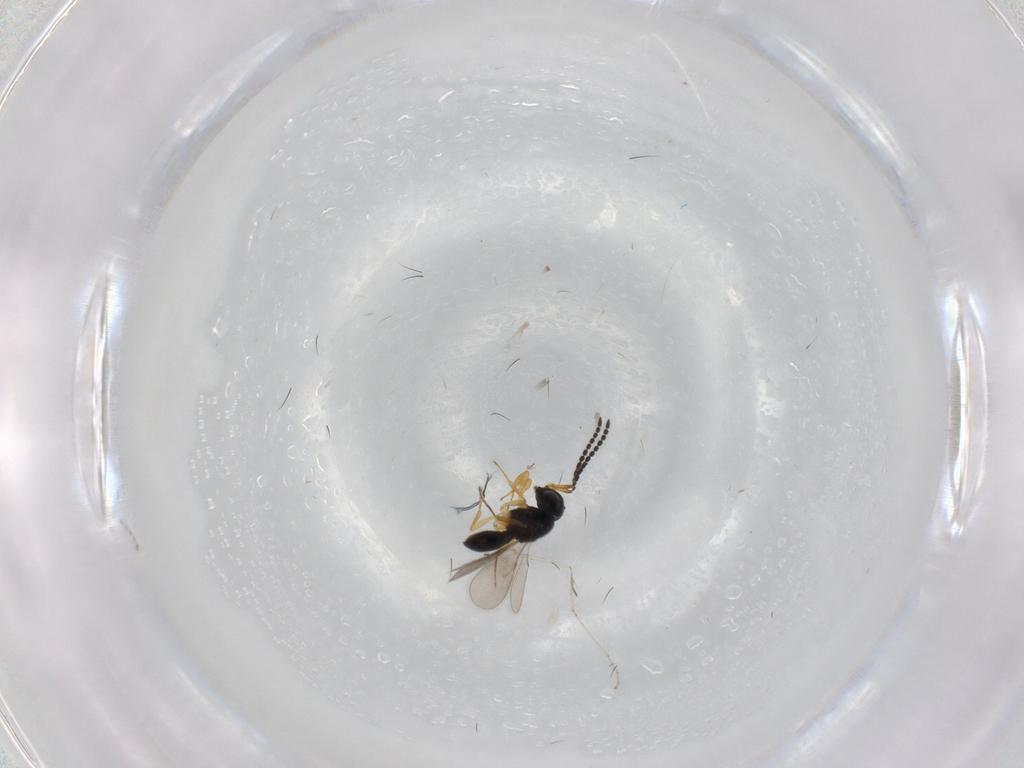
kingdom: Animalia
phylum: Arthropoda
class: Insecta
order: Hymenoptera
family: Scelionidae
